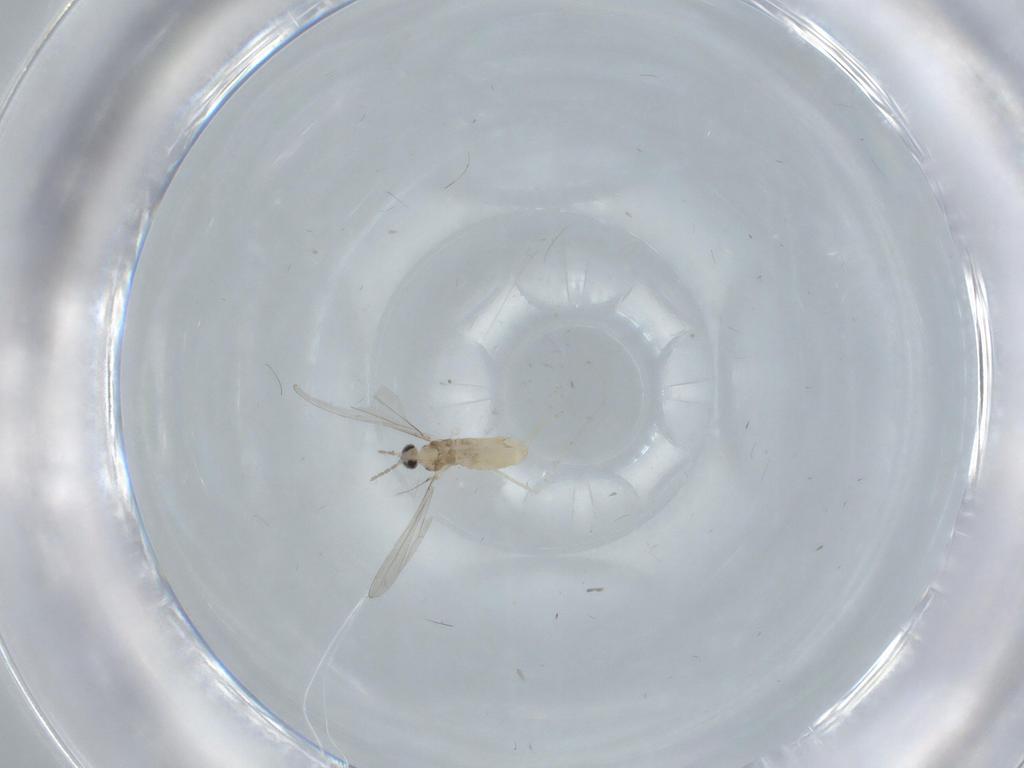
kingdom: Animalia
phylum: Arthropoda
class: Insecta
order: Diptera
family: Cecidomyiidae
